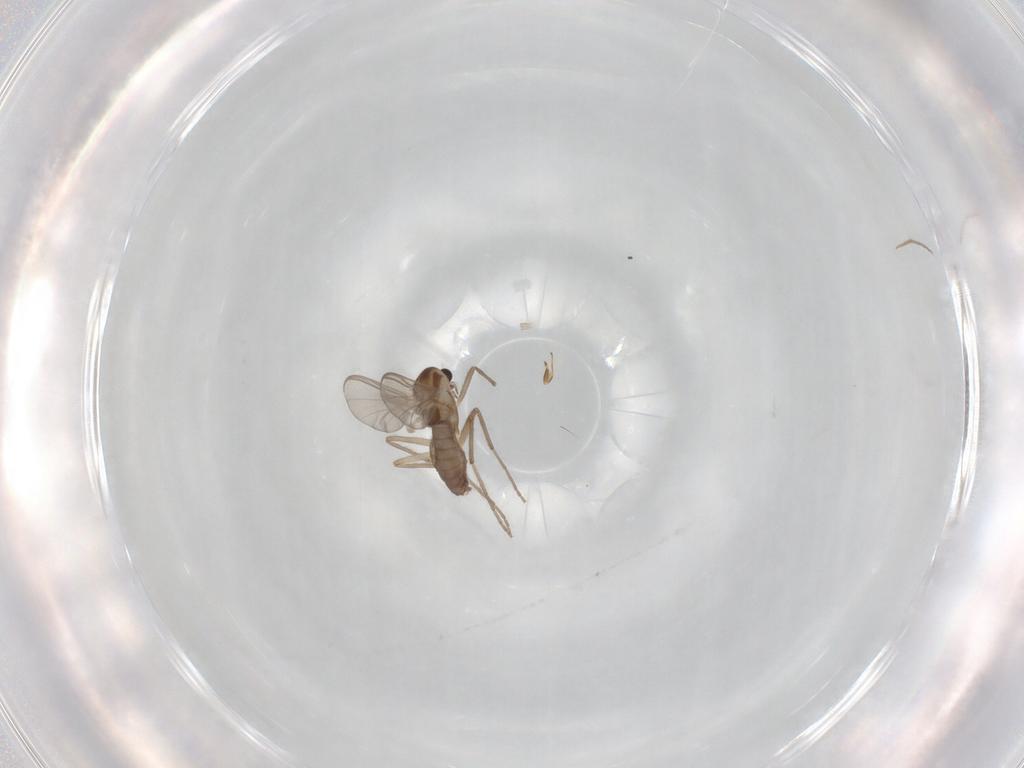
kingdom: Animalia
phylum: Arthropoda
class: Insecta
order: Diptera
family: Chironomidae
